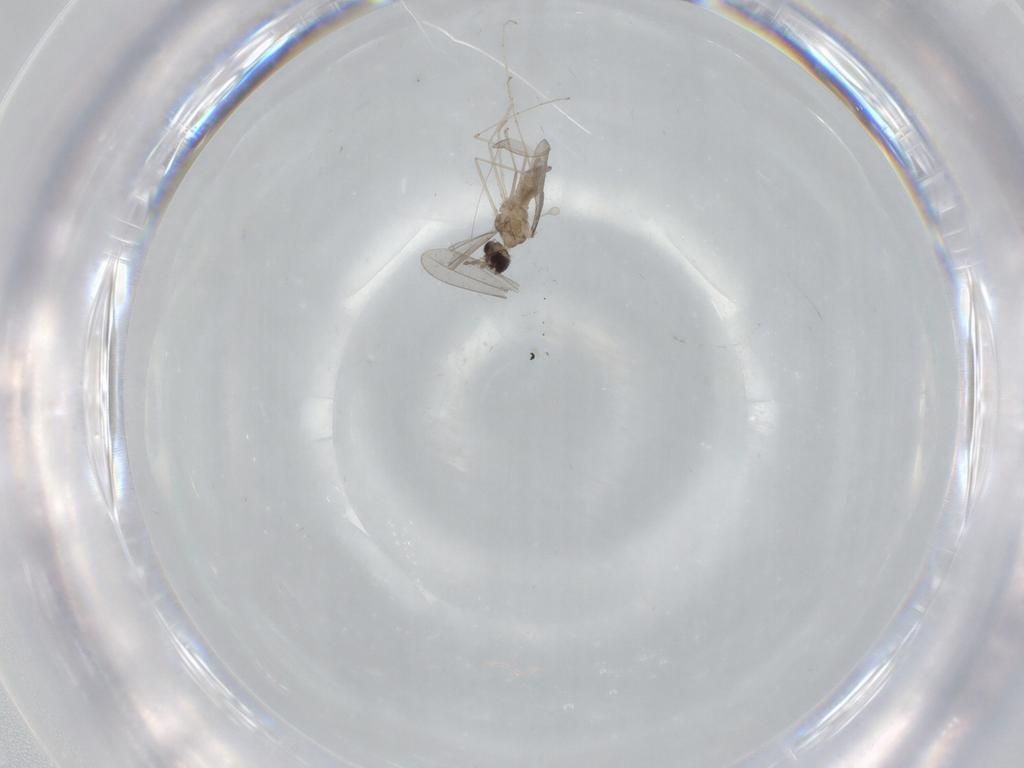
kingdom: Animalia
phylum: Arthropoda
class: Insecta
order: Diptera
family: Cecidomyiidae
